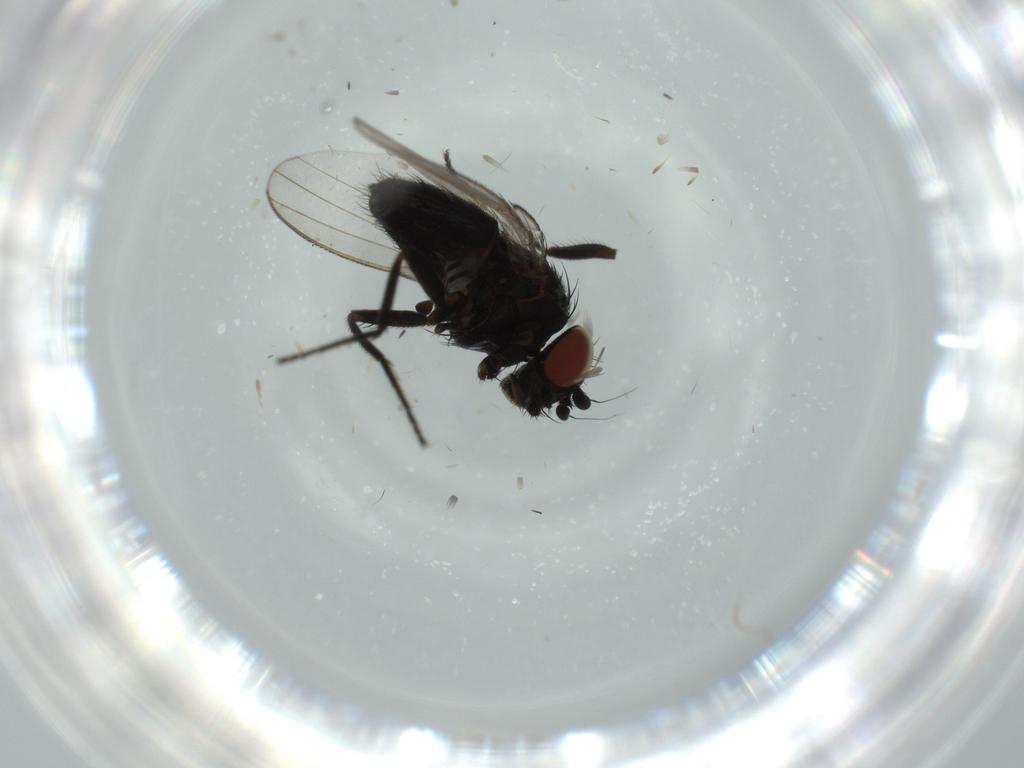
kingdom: Animalia
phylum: Arthropoda
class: Insecta
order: Diptera
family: Milichiidae
